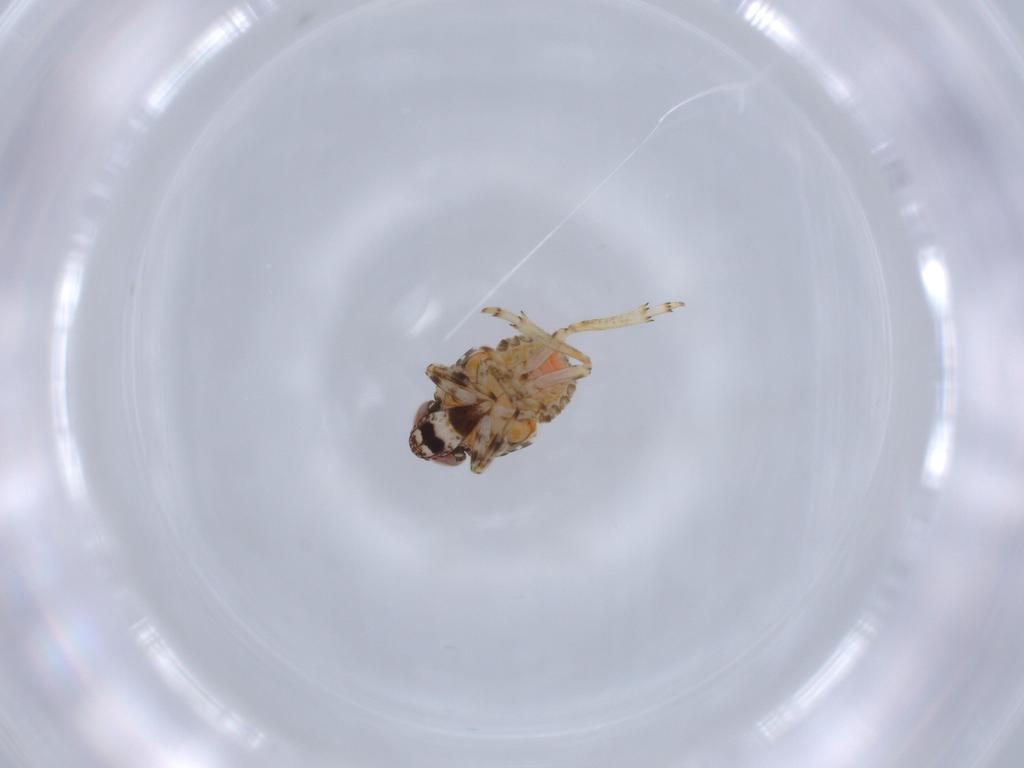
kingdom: Animalia
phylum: Arthropoda
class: Insecta
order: Hemiptera
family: Issidae
